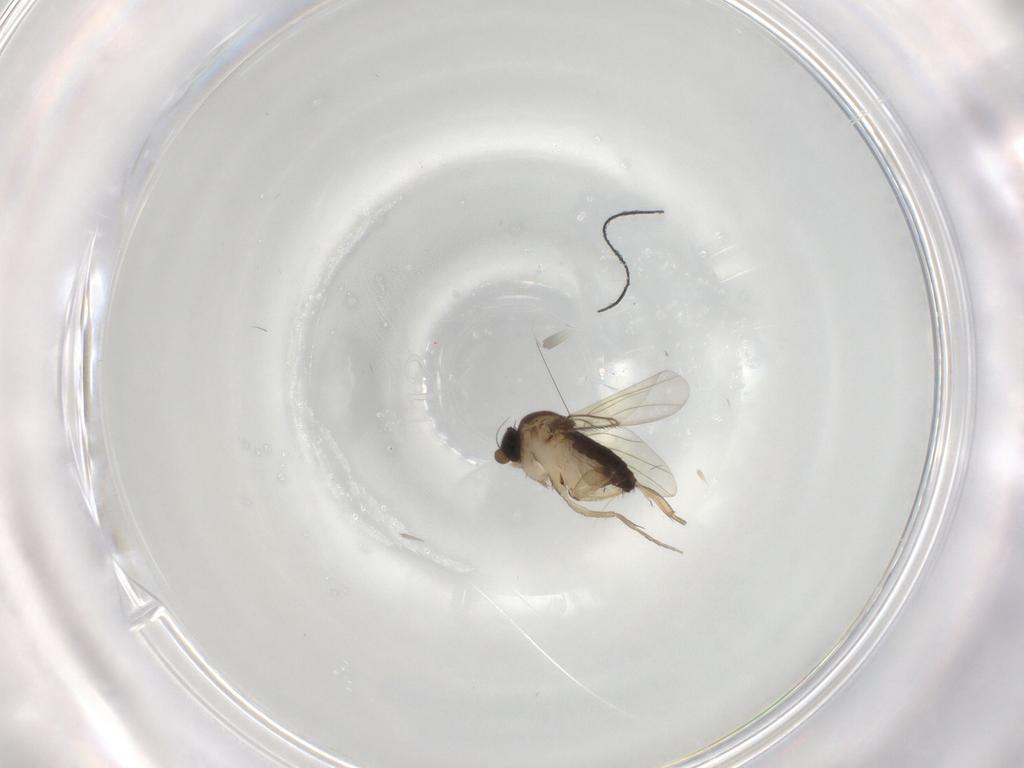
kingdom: Animalia
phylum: Arthropoda
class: Insecta
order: Diptera
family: Phoridae
